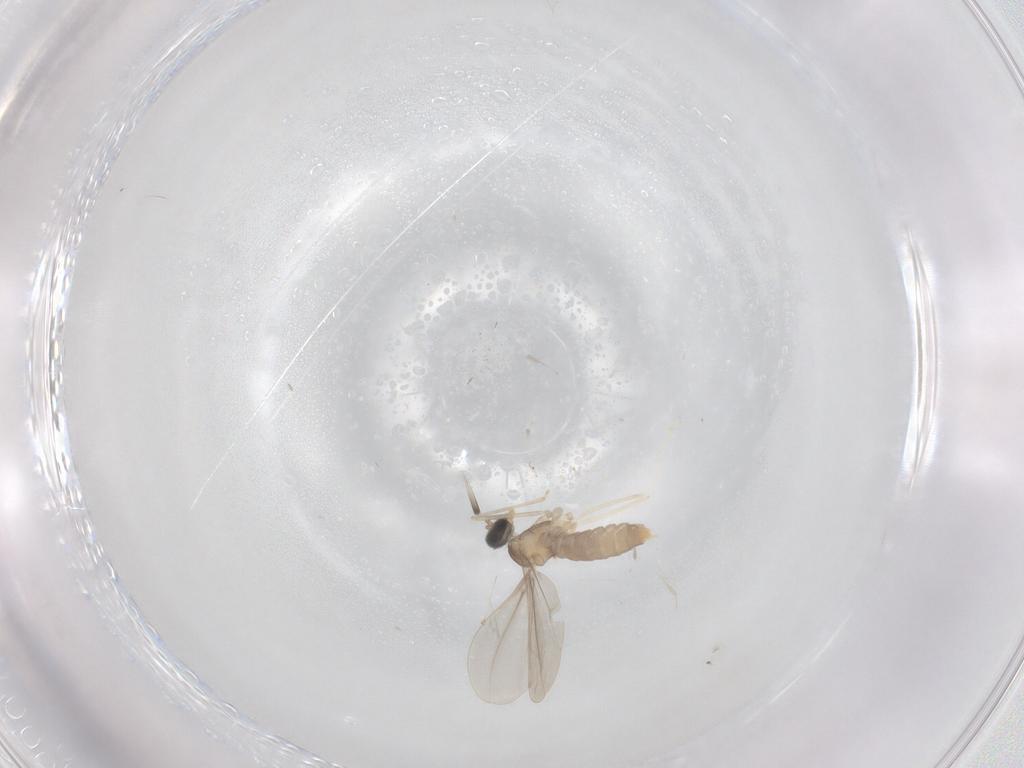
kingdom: Animalia
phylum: Arthropoda
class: Insecta
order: Diptera
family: Cecidomyiidae
